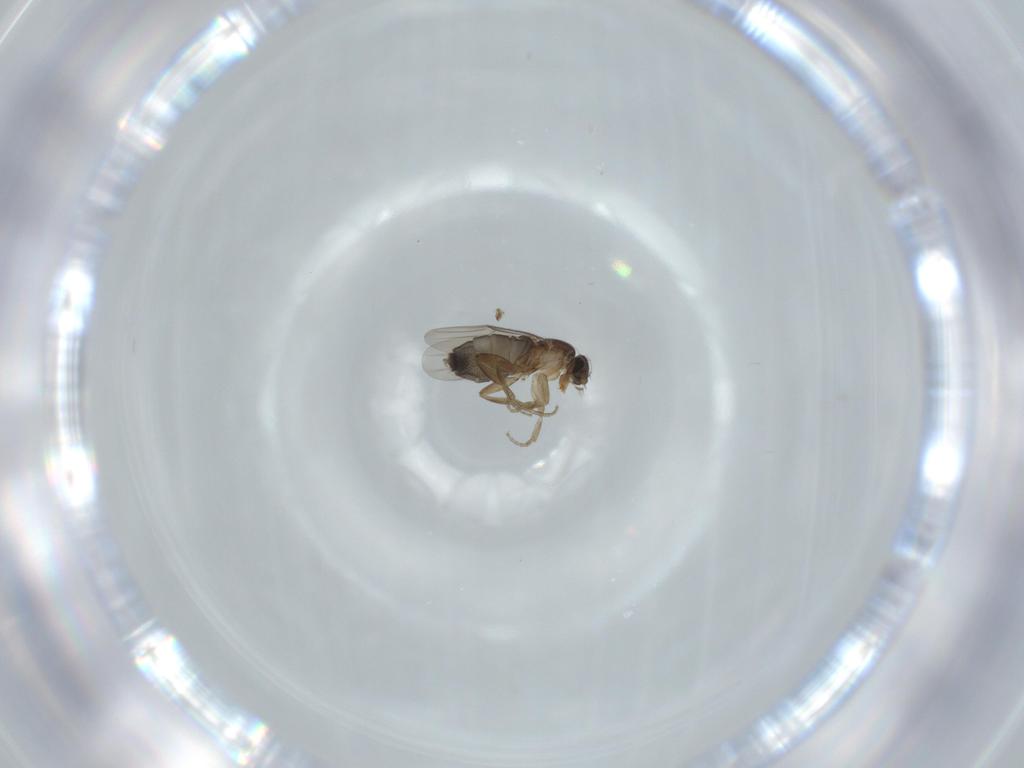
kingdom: Animalia
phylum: Arthropoda
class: Insecta
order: Diptera
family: Phoridae
